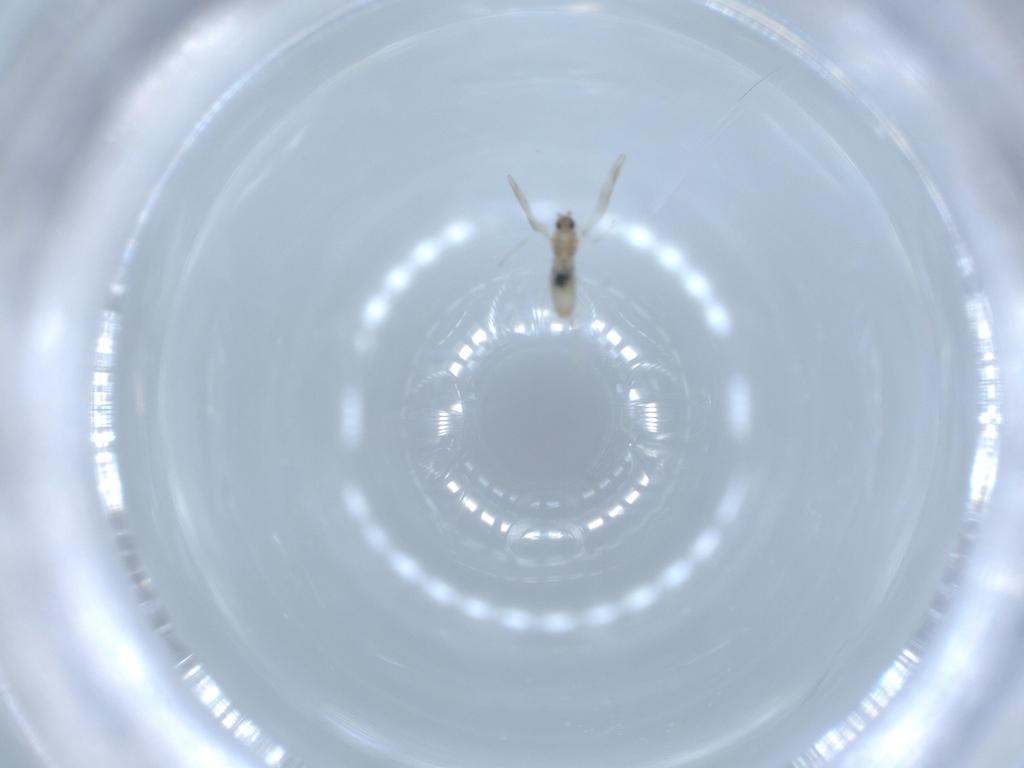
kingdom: Animalia
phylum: Arthropoda
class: Insecta
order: Diptera
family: Cecidomyiidae
